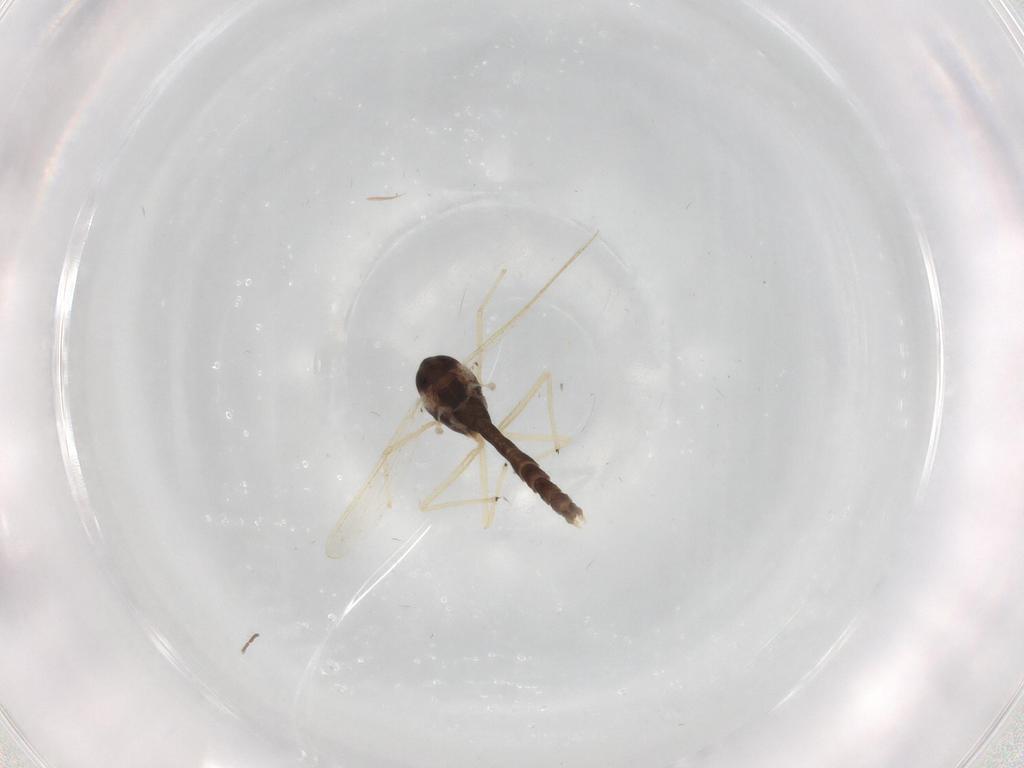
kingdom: Animalia
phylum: Arthropoda
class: Insecta
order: Diptera
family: Chironomidae
